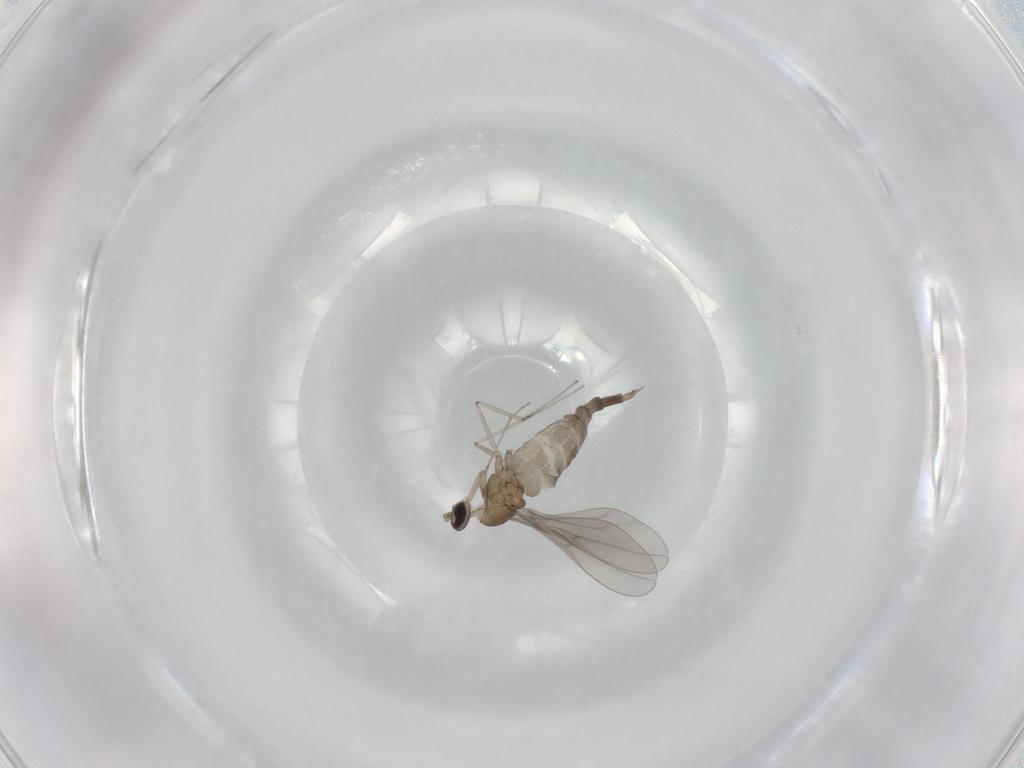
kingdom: Animalia
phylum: Arthropoda
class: Insecta
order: Diptera
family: Cecidomyiidae
